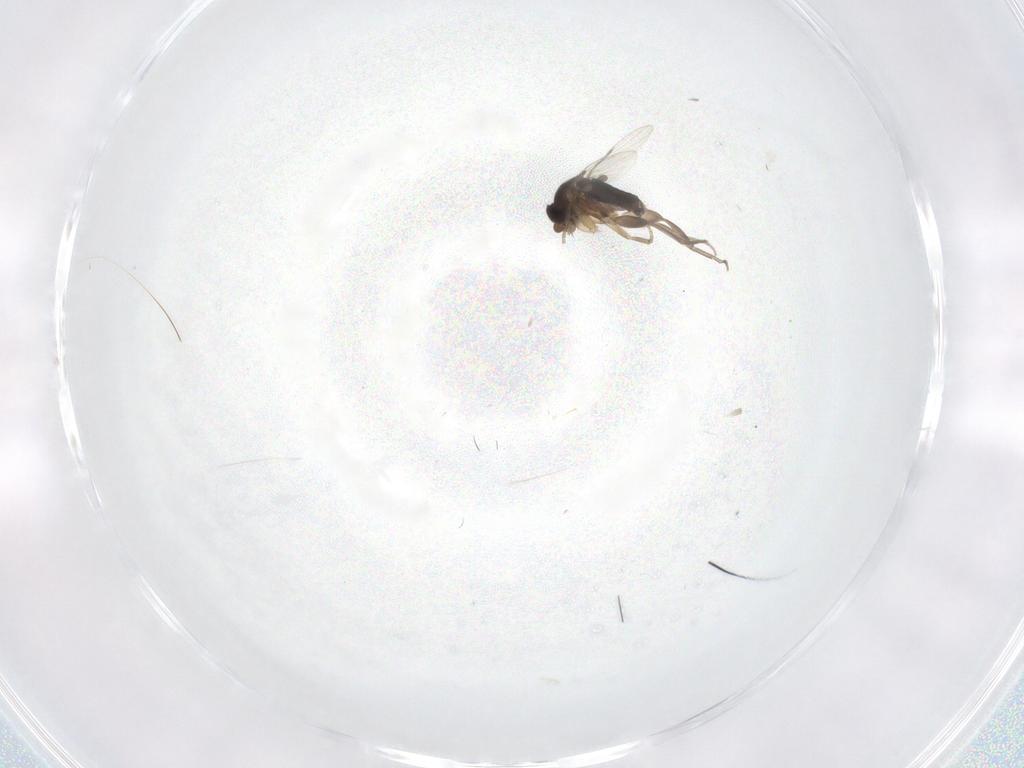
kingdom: Animalia
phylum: Arthropoda
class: Insecta
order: Diptera
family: Phoridae
